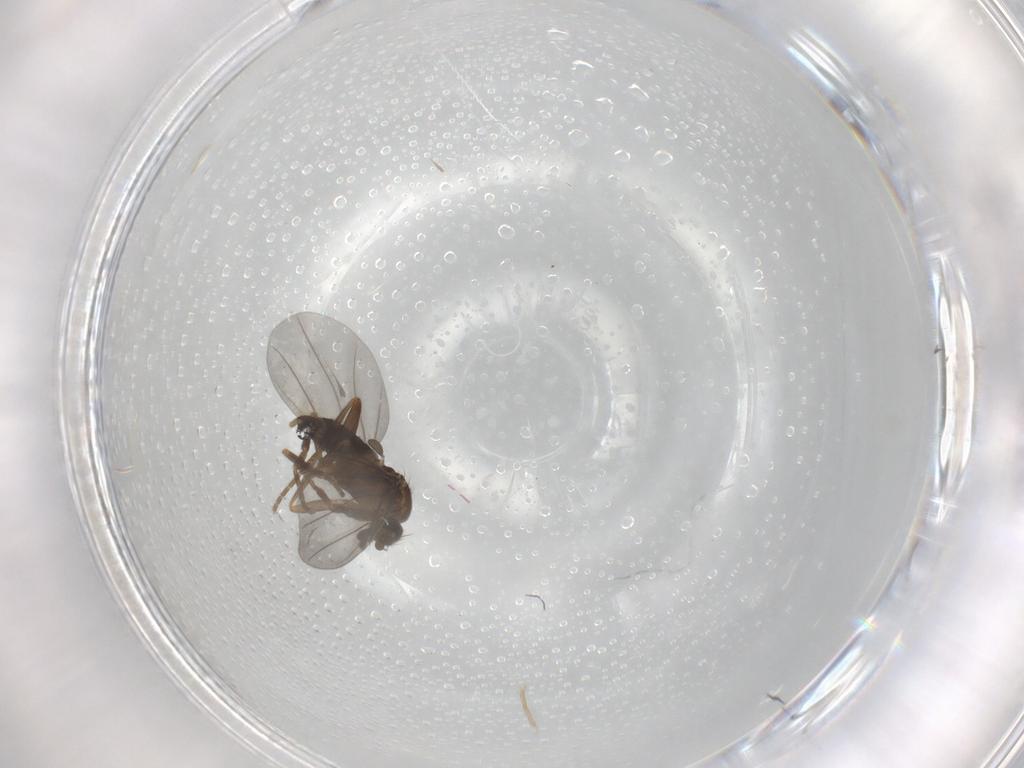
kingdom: Animalia
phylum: Arthropoda
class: Insecta
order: Diptera
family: Phoridae
